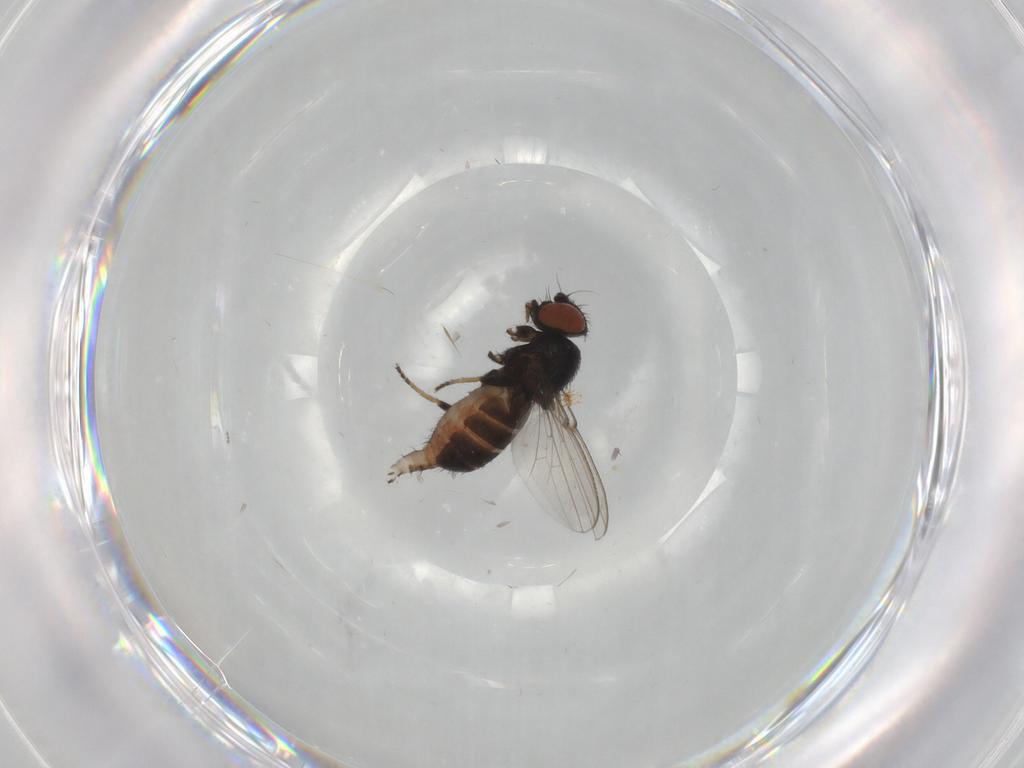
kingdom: Animalia
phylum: Arthropoda
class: Insecta
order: Diptera
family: Milichiidae
